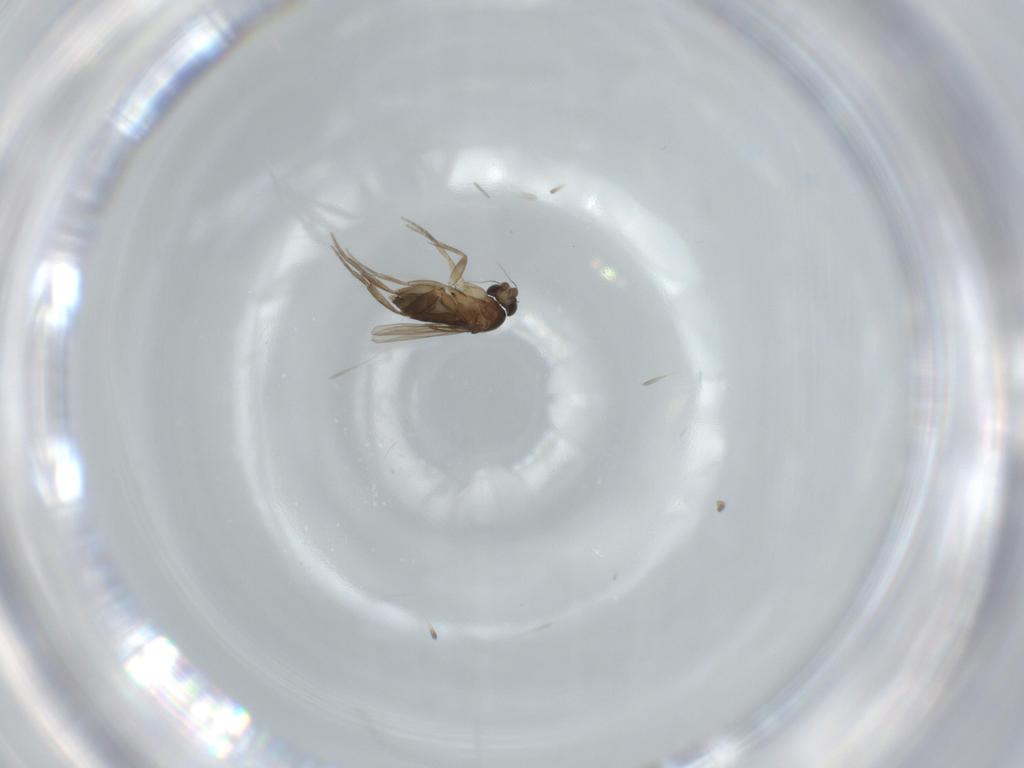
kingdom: Animalia
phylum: Arthropoda
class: Insecta
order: Diptera
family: Phoridae
